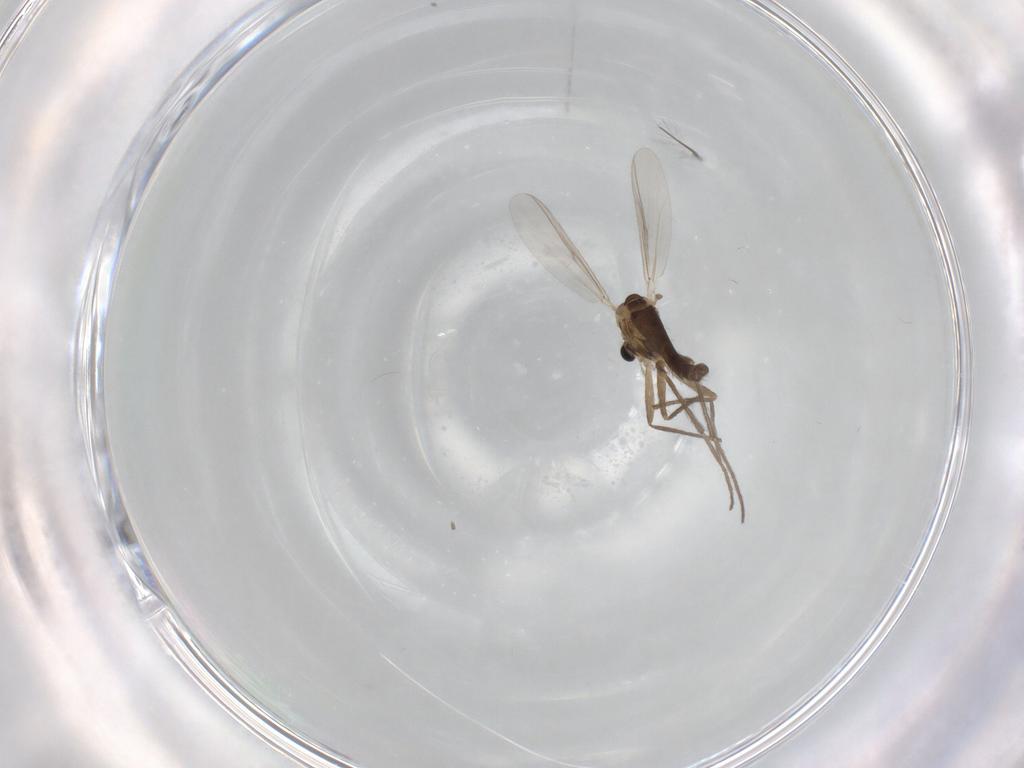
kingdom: Animalia
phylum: Arthropoda
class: Insecta
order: Diptera
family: Chironomidae
